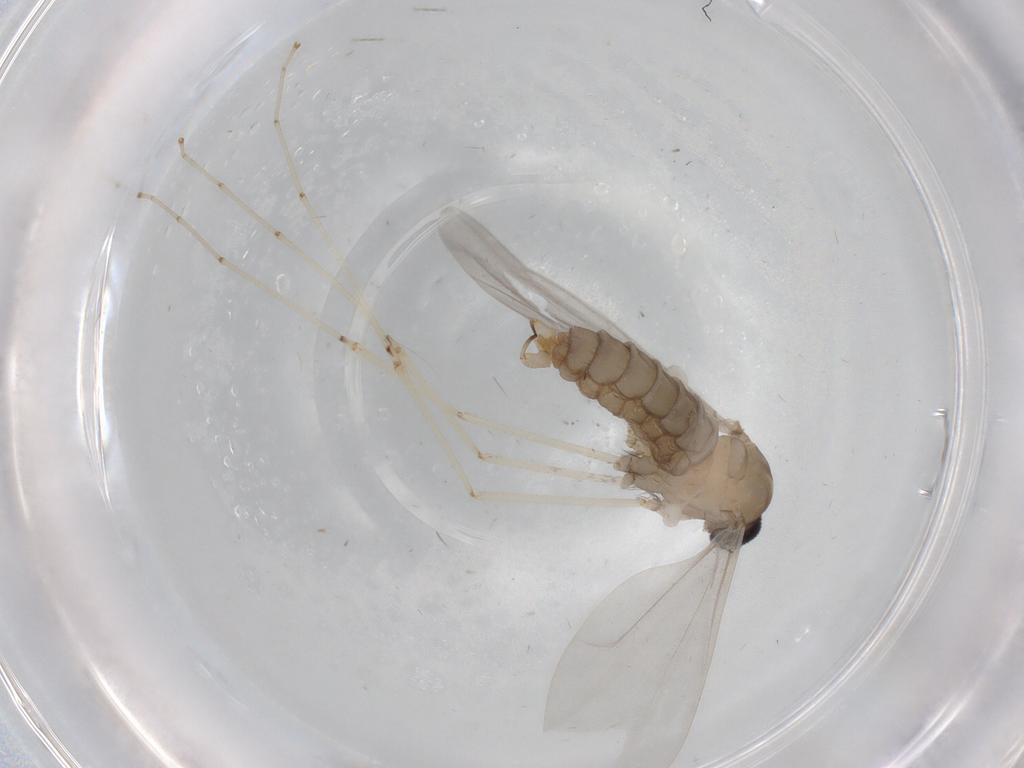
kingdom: Animalia
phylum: Arthropoda
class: Insecta
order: Diptera
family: Cecidomyiidae
